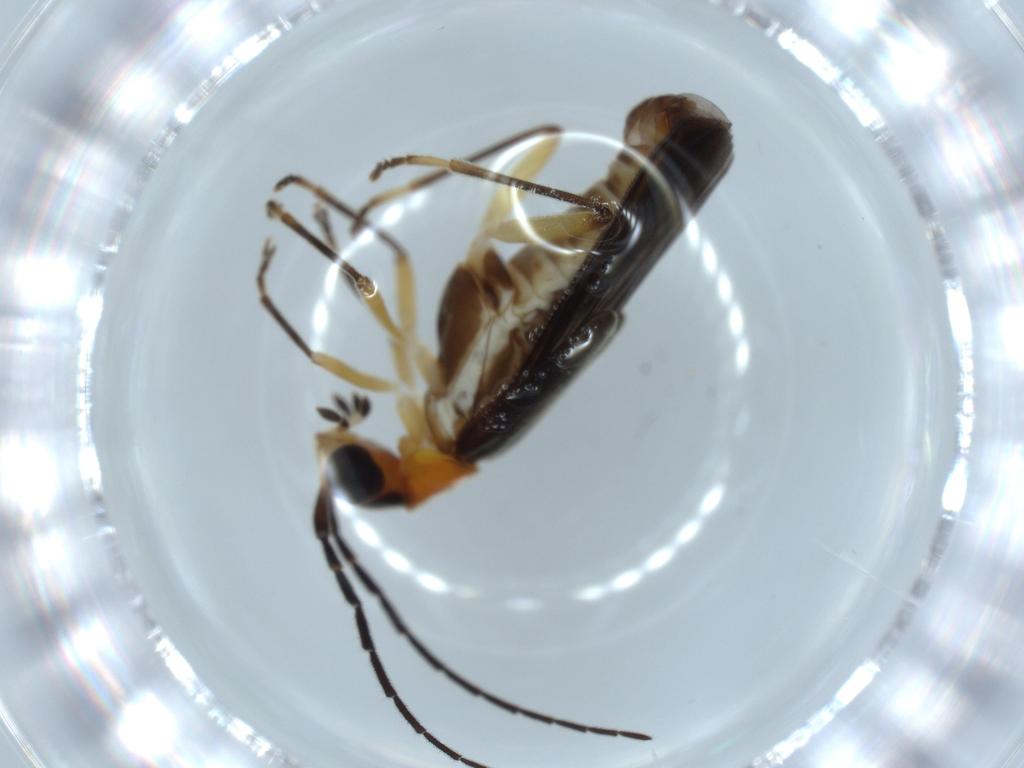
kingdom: Animalia
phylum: Arthropoda
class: Insecta
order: Coleoptera
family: Cantharidae
